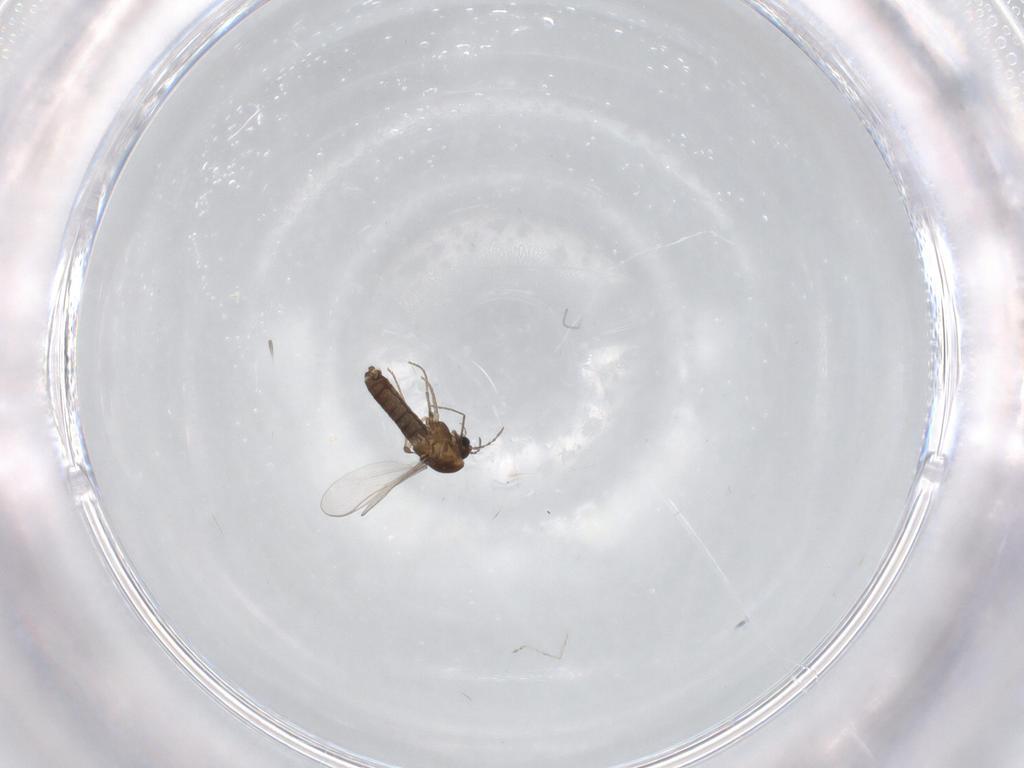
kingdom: Animalia
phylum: Arthropoda
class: Insecta
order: Diptera
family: Chironomidae
